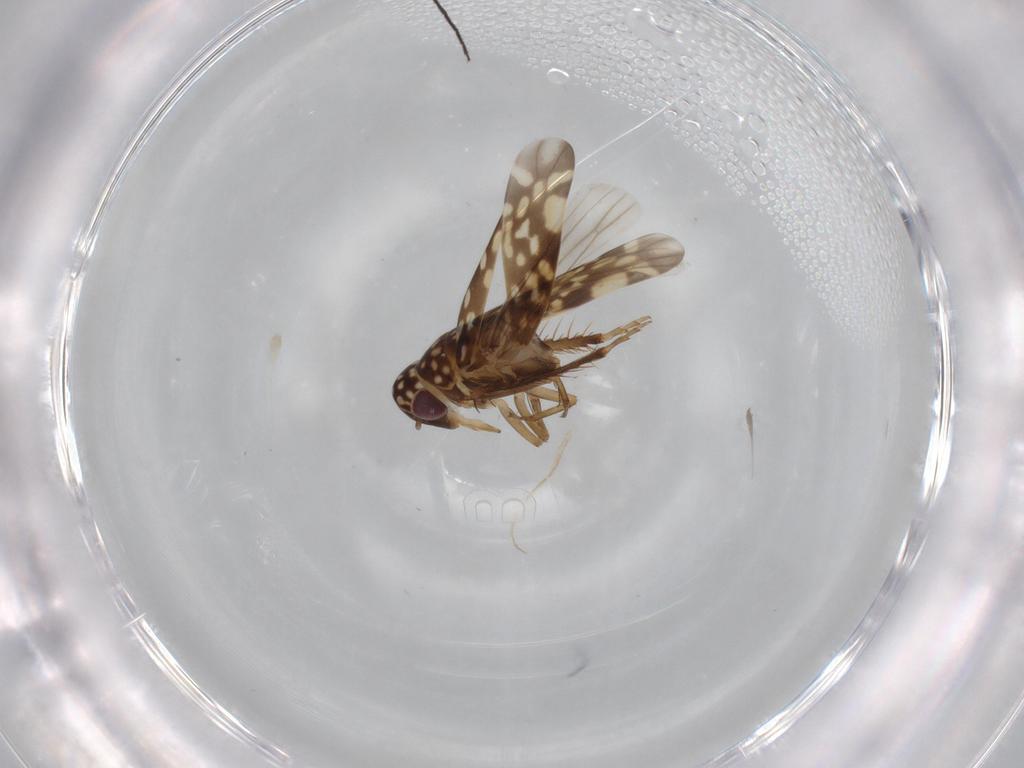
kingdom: Animalia
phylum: Arthropoda
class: Insecta
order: Hemiptera
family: Cicadellidae
